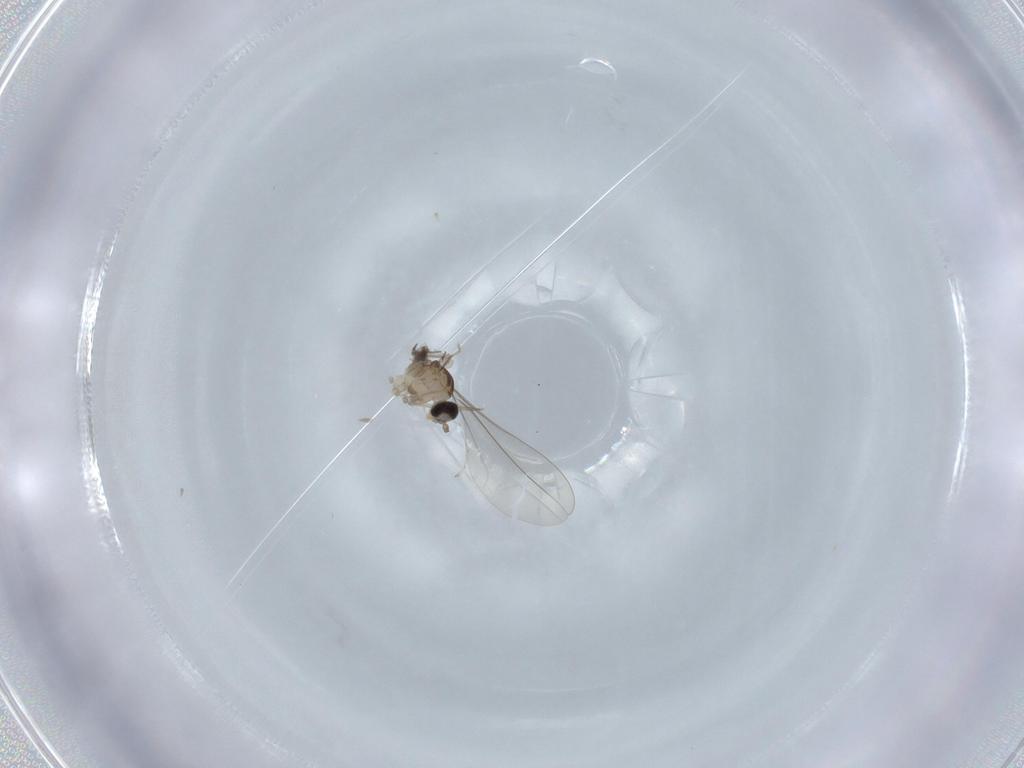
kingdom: Animalia
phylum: Arthropoda
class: Insecta
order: Diptera
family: Cecidomyiidae
